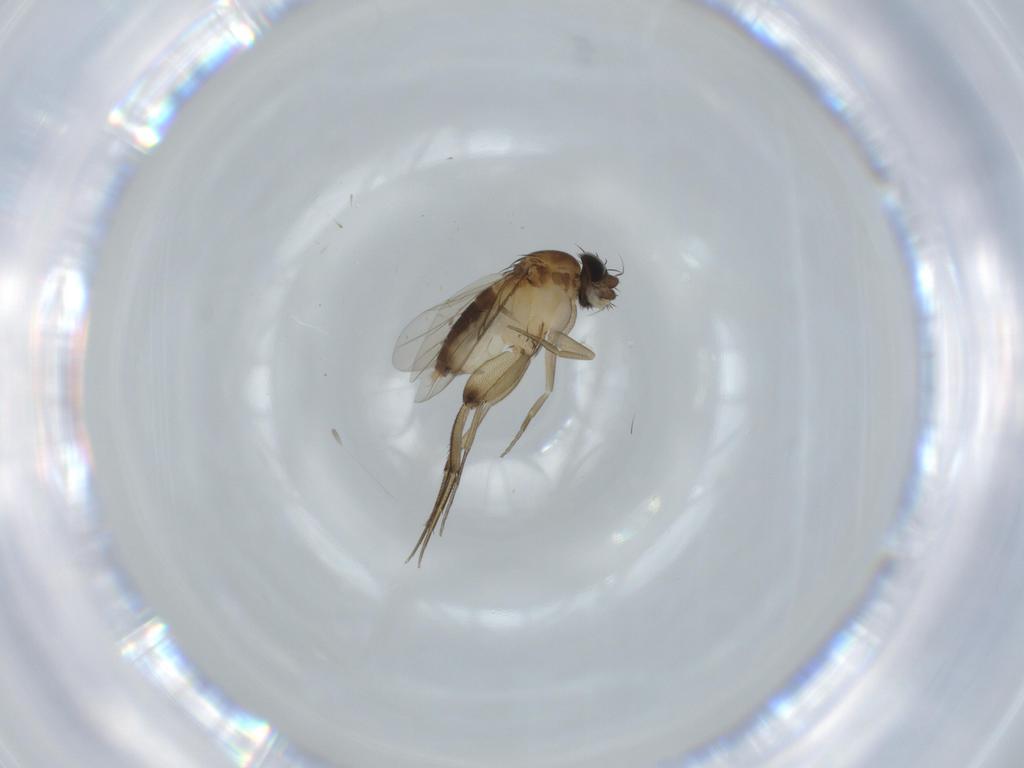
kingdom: Animalia
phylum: Arthropoda
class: Insecta
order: Diptera
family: Phoridae
